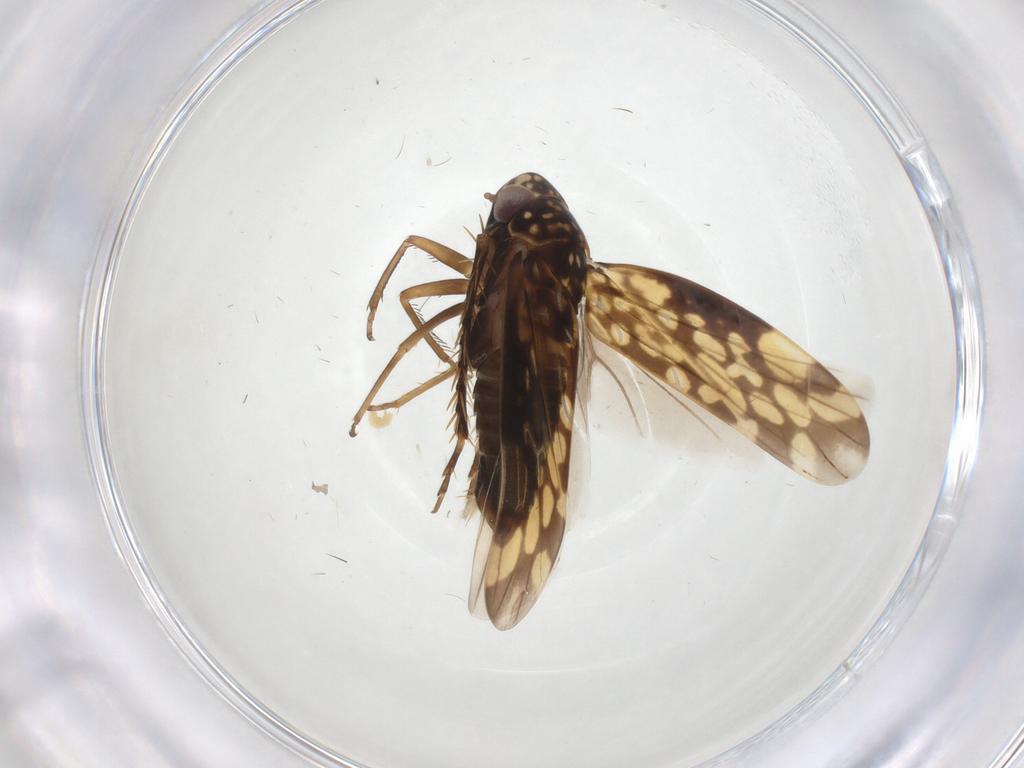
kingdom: Animalia
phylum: Arthropoda
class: Insecta
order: Hemiptera
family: Cicadellidae
